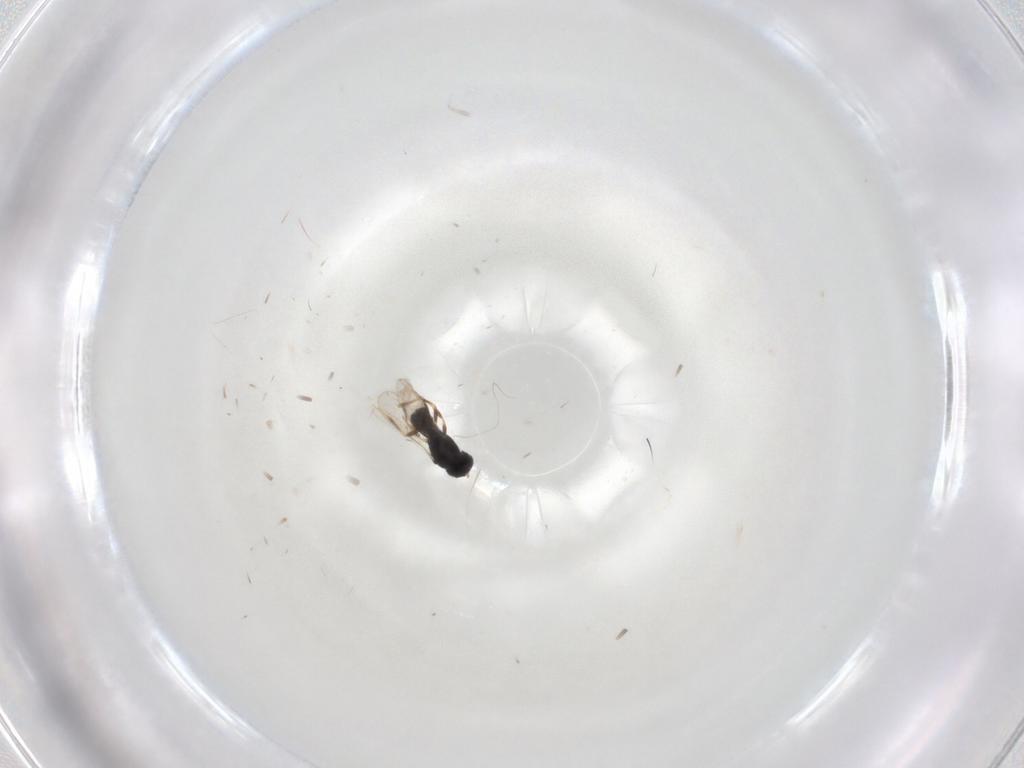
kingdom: Animalia
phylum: Arthropoda
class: Insecta
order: Hymenoptera
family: Scelionidae
